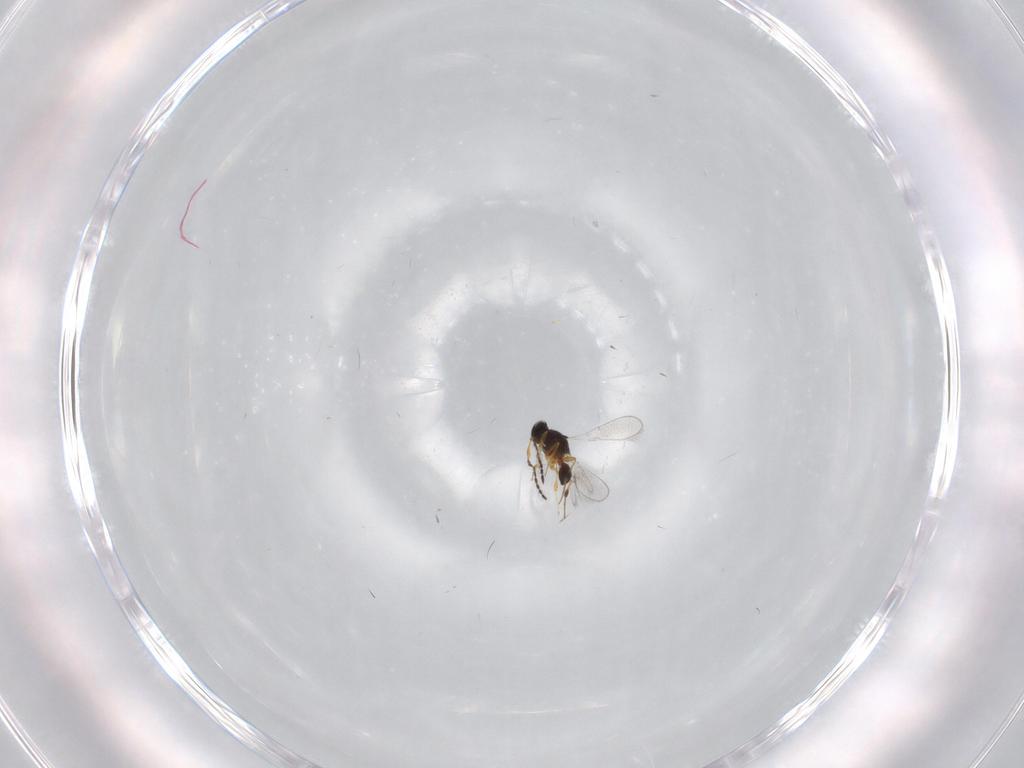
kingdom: Animalia
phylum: Arthropoda
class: Insecta
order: Hymenoptera
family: Platygastridae
